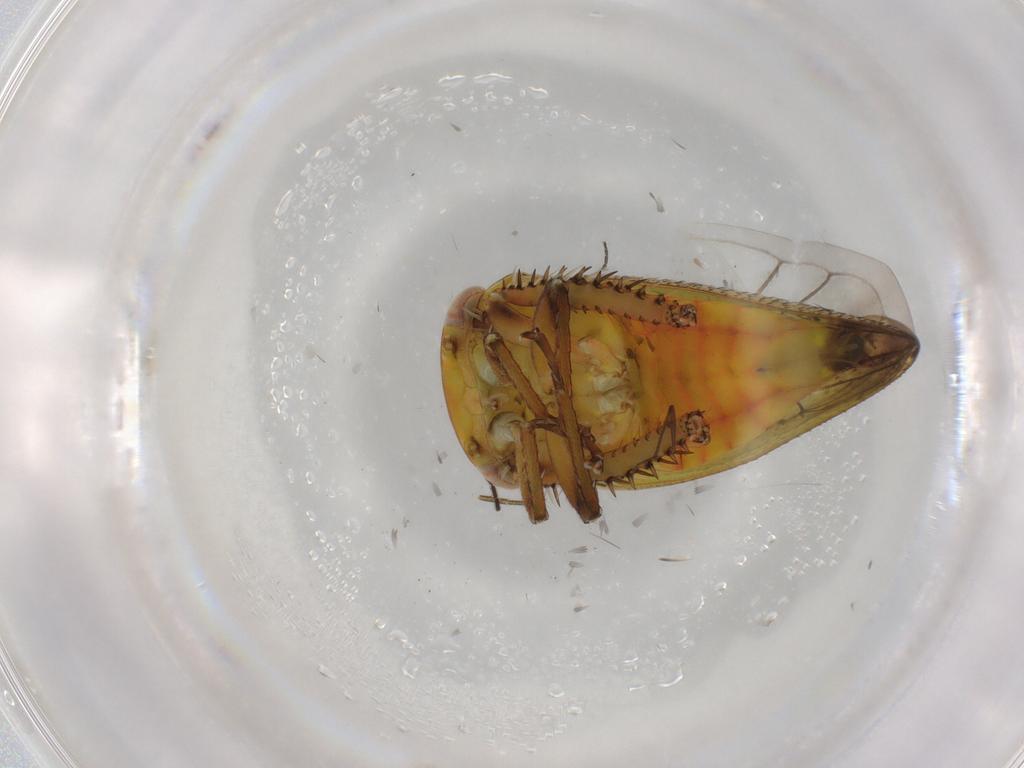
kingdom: Animalia
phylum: Arthropoda
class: Insecta
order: Hemiptera
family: Cicadellidae
